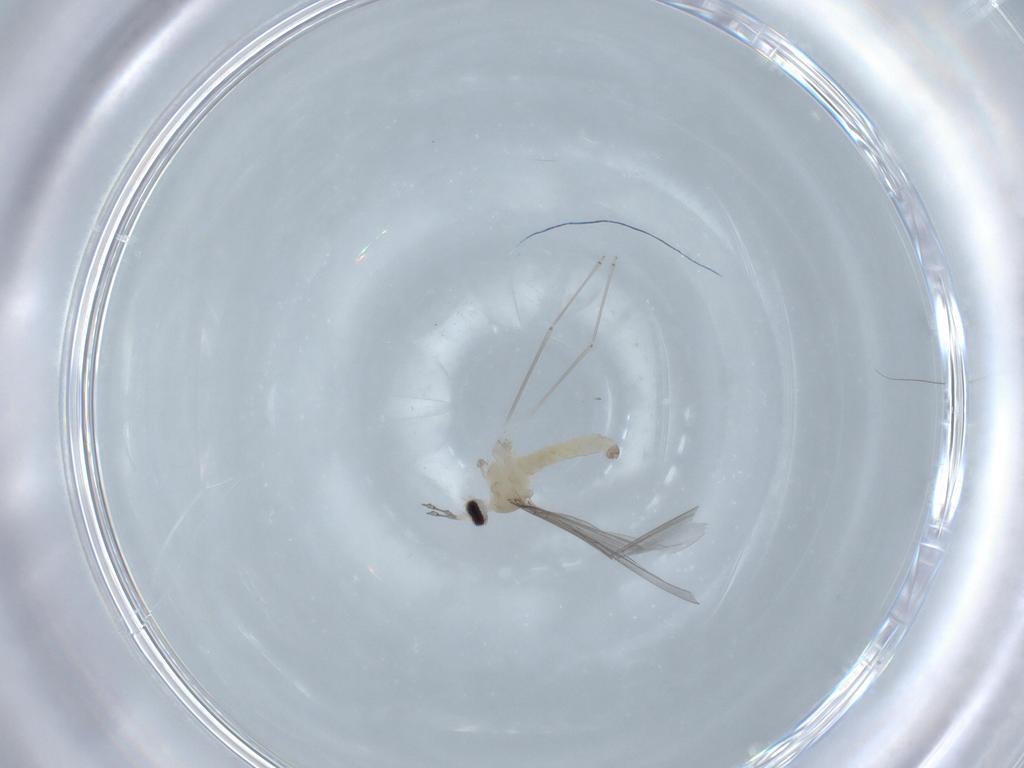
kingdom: Animalia
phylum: Arthropoda
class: Insecta
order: Diptera
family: Cecidomyiidae
